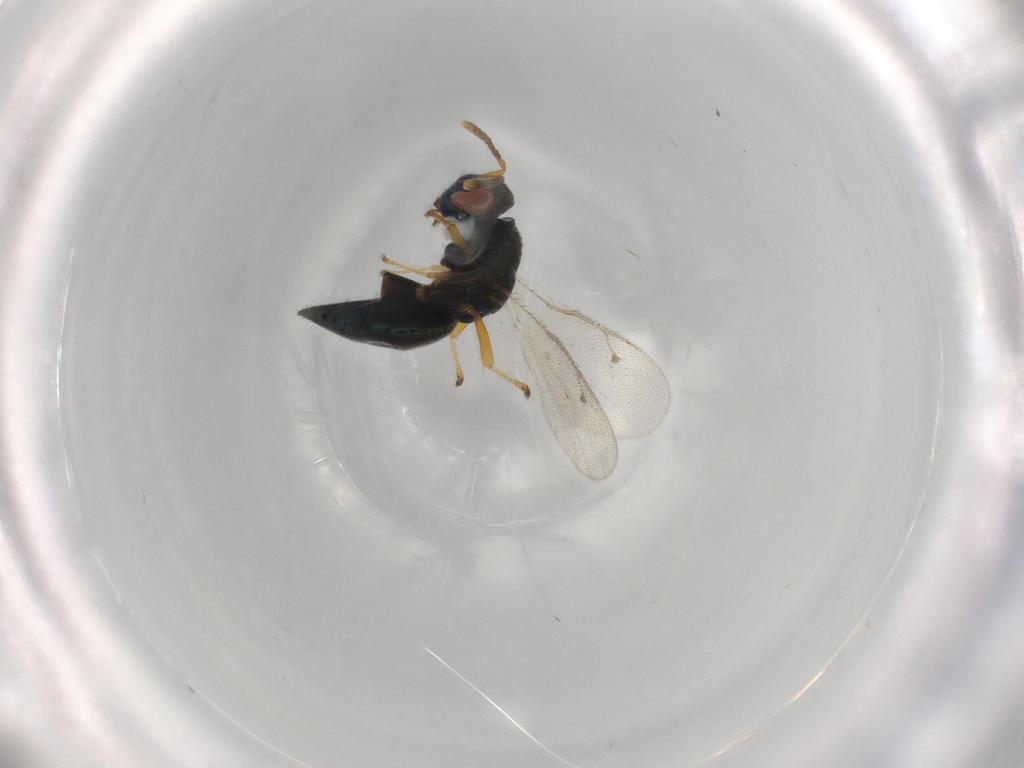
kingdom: Animalia
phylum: Arthropoda
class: Insecta
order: Hymenoptera
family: Pteromalidae
